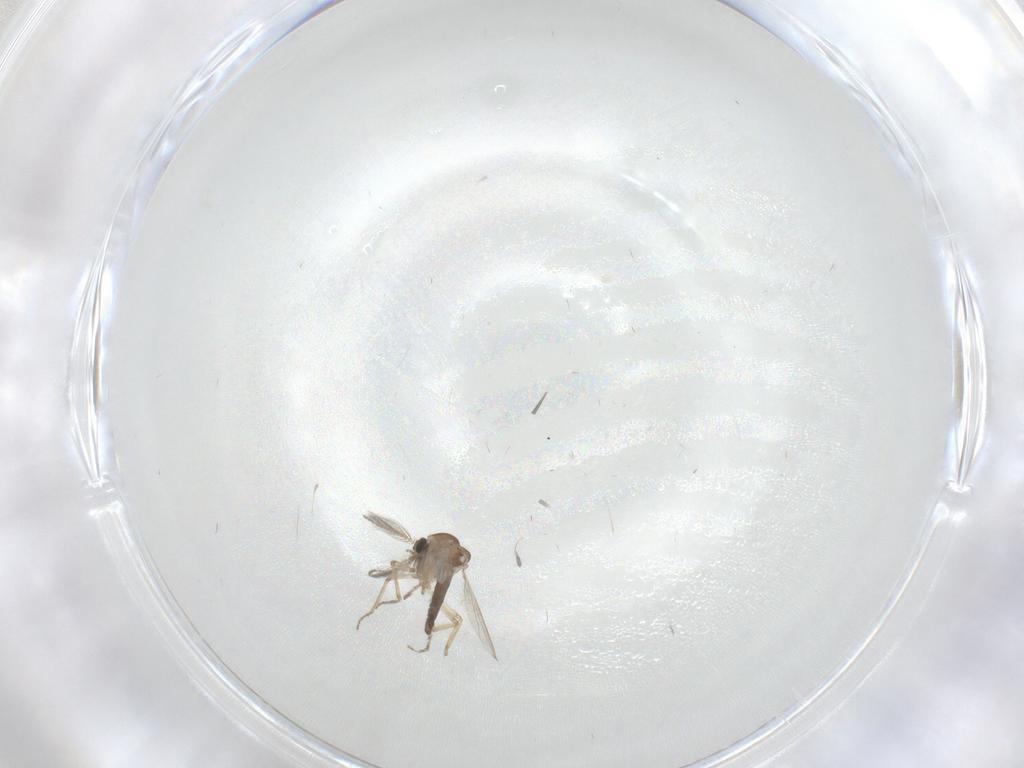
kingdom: Animalia
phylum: Arthropoda
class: Insecta
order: Diptera
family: Ceratopogonidae
